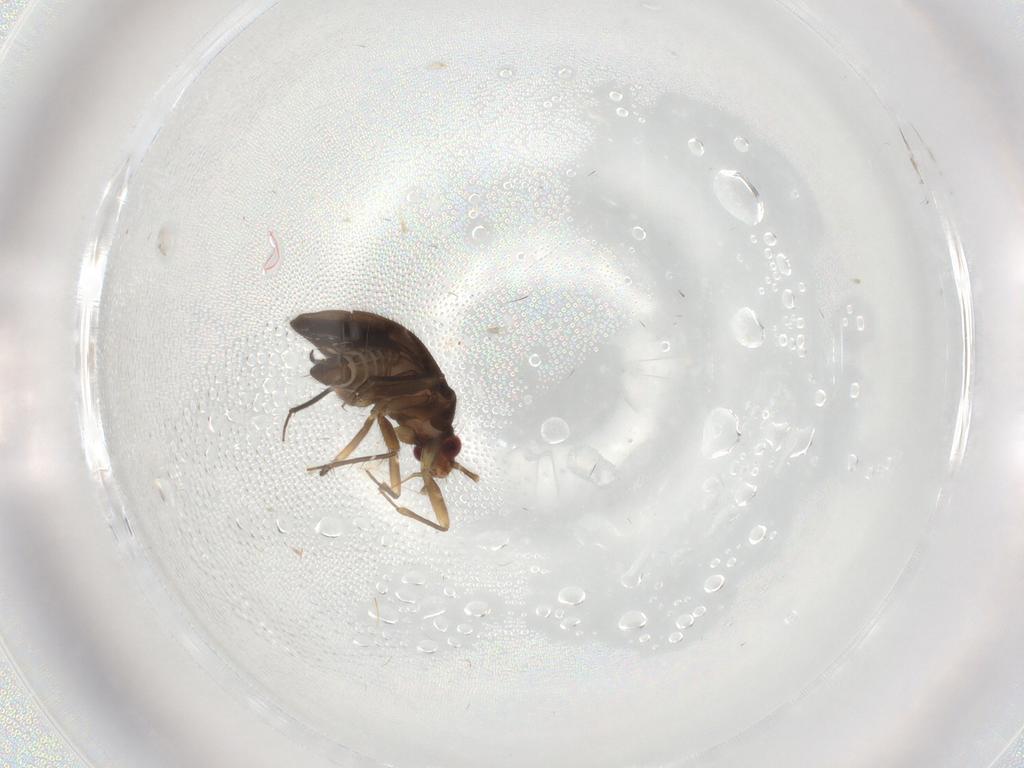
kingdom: Animalia
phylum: Arthropoda
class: Insecta
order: Hemiptera
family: Ceratocombidae
